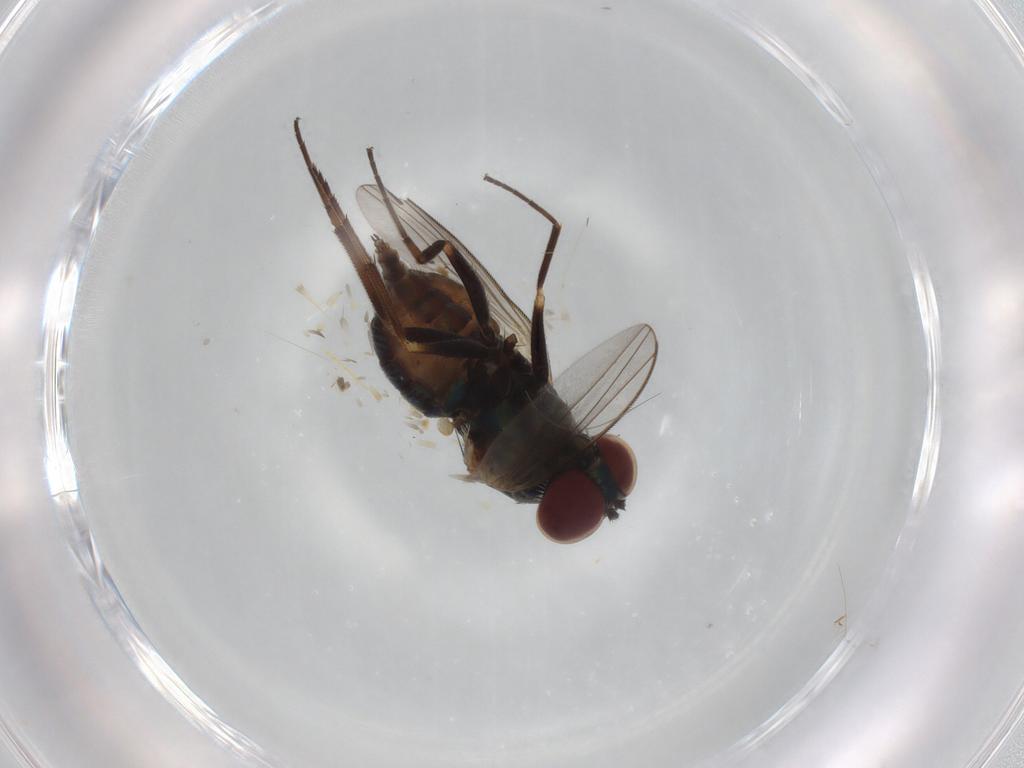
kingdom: Animalia
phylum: Arthropoda
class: Insecta
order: Diptera
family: Dolichopodidae
